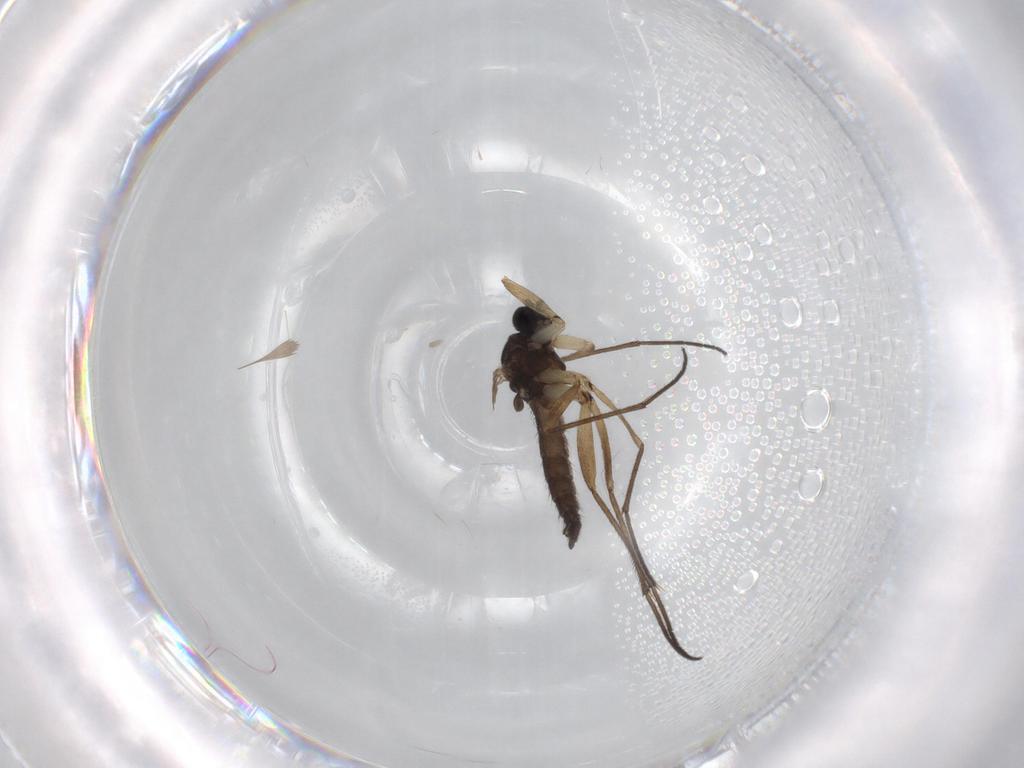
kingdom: Animalia
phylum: Arthropoda
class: Insecta
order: Diptera
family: Sciaridae
